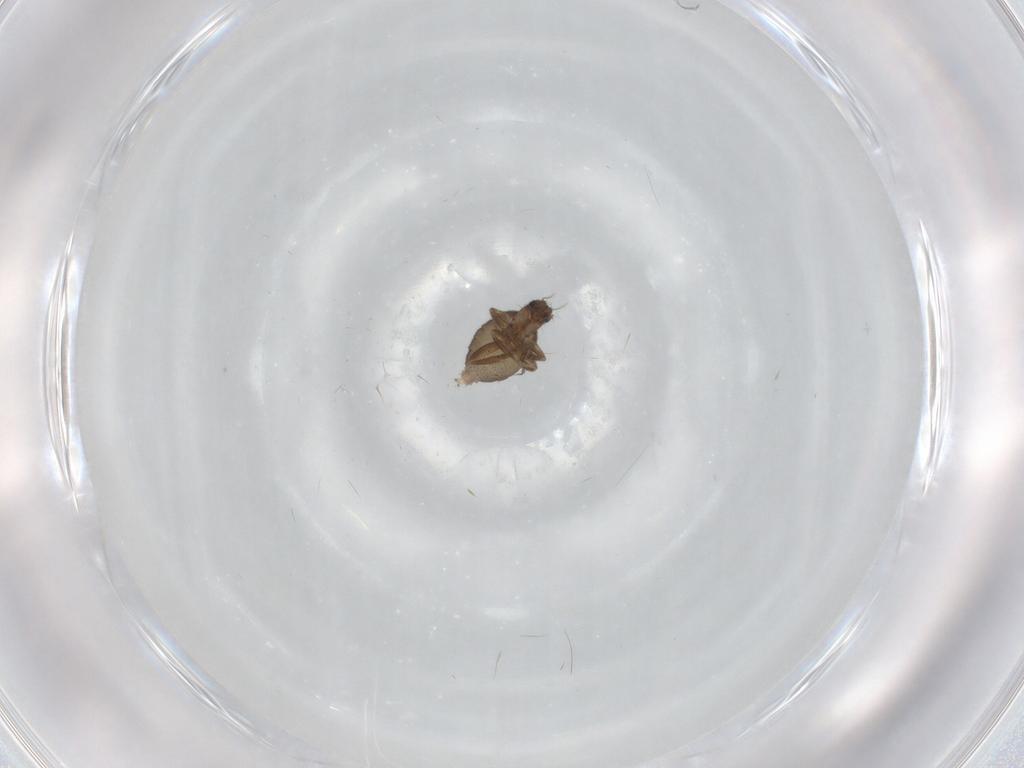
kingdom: Animalia
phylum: Arthropoda
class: Insecta
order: Diptera
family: Phoridae
